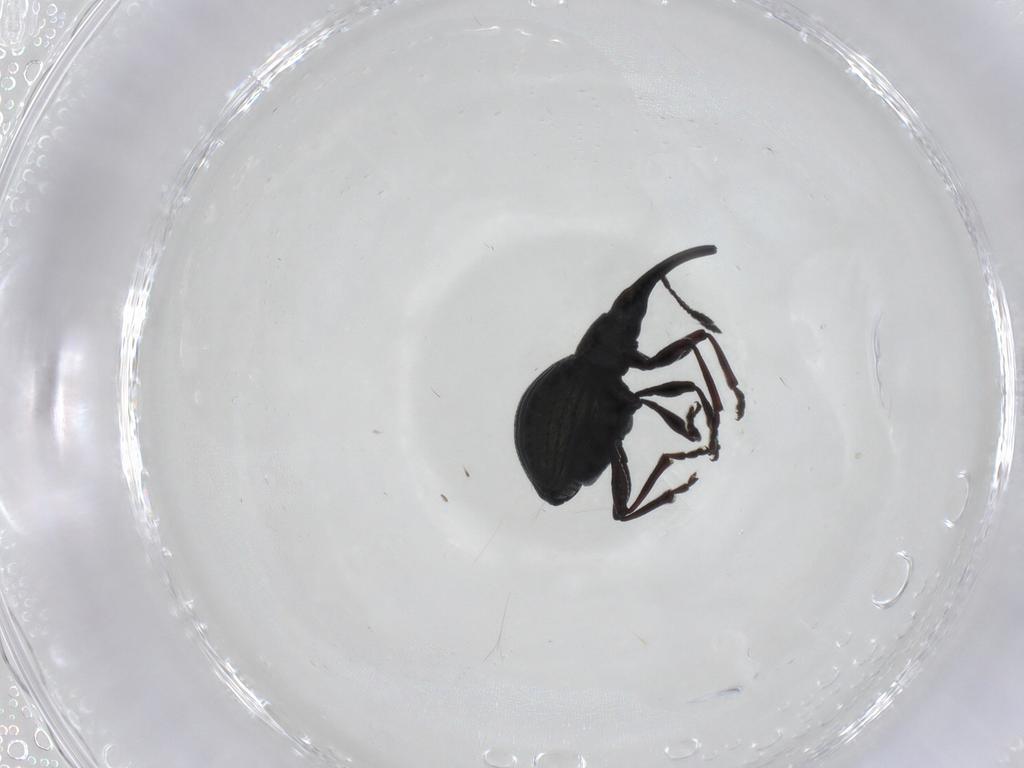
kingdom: Animalia
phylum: Arthropoda
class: Insecta
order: Coleoptera
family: Brentidae
